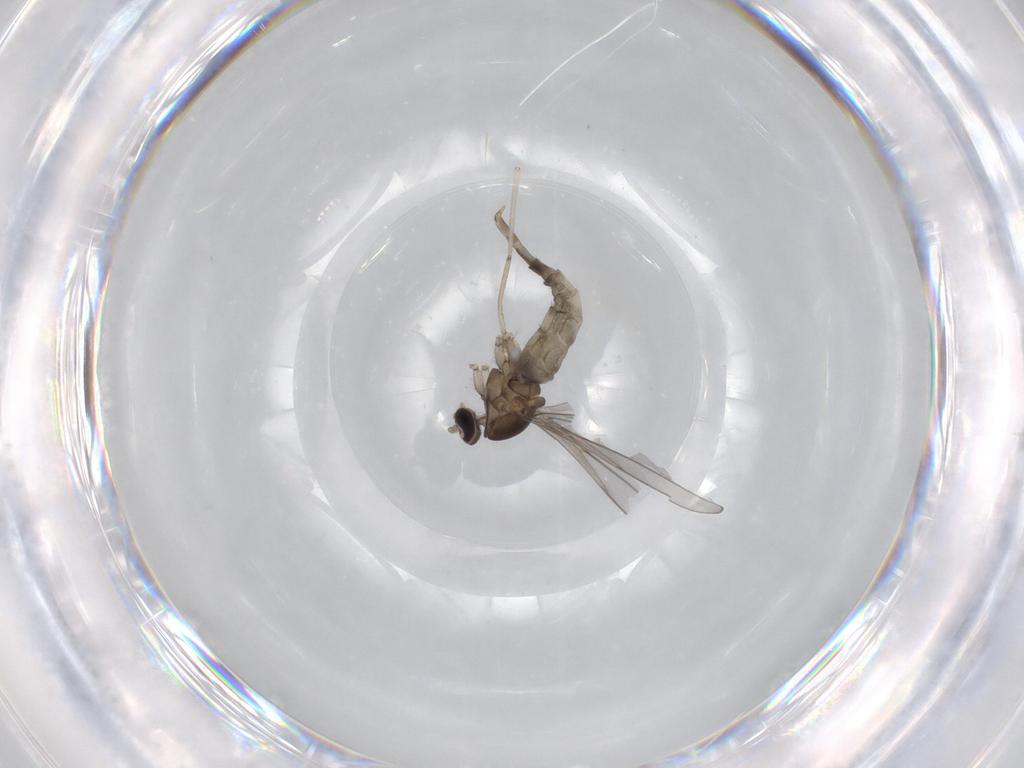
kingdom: Animalia
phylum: Arthropoda
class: Insecta
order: Diptera
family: Cecidomyiidae
